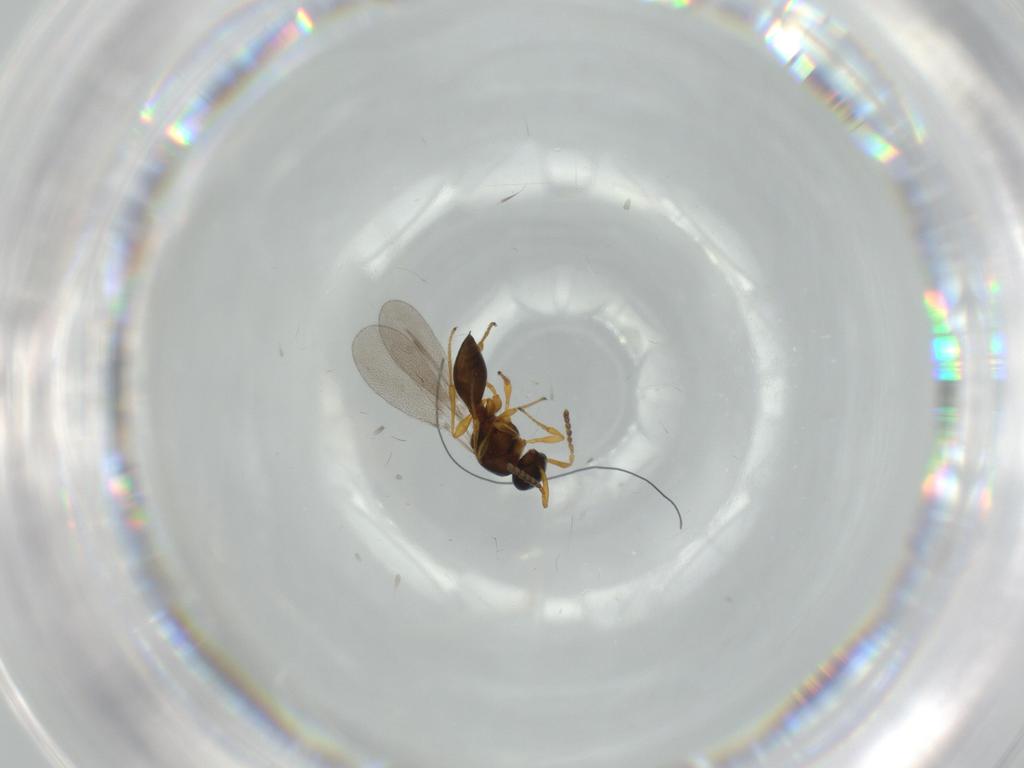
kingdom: Animalia
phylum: Arthropoda
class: Insecta
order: Hymenoptera
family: Platygastridae
